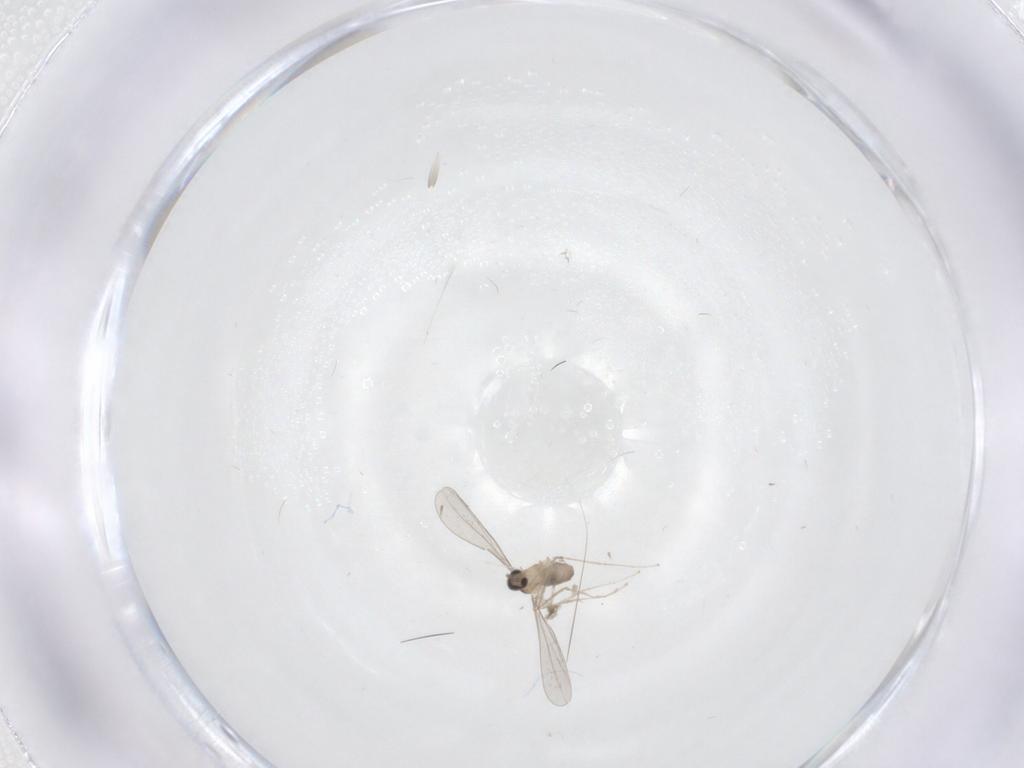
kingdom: Animalia
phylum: Arthropoda
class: Insecta
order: Diptera
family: Cecidomyiidae
